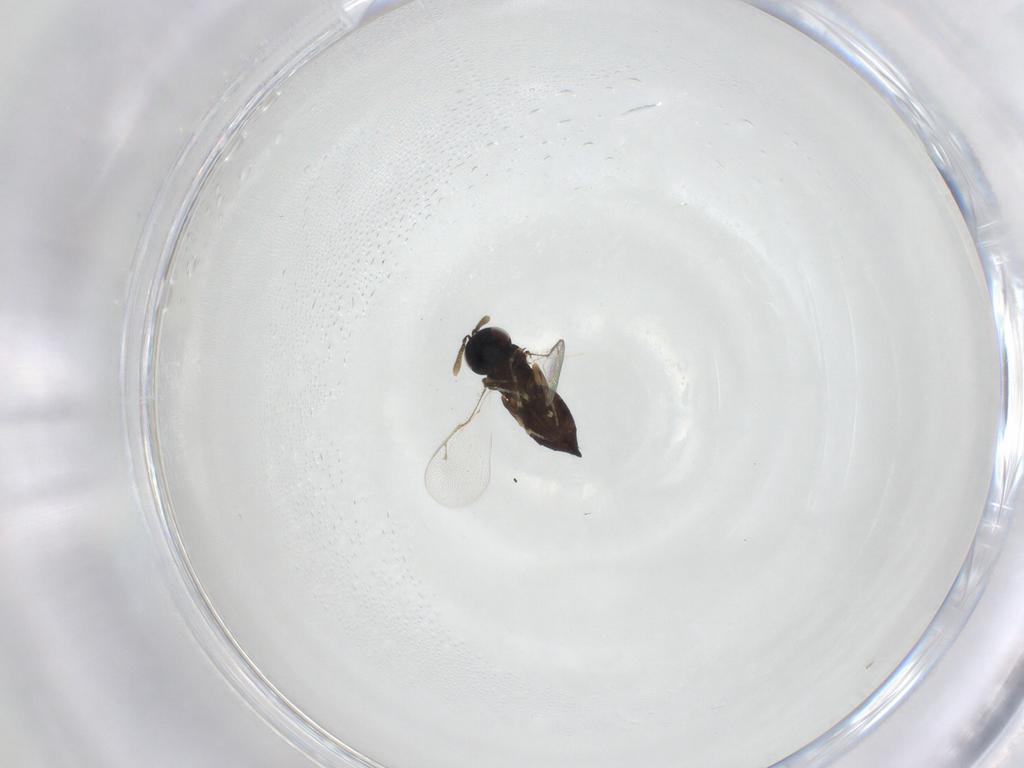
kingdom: Animalia
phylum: Arthropoda
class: Insecta
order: Hymenoptera
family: Pteromalidae
